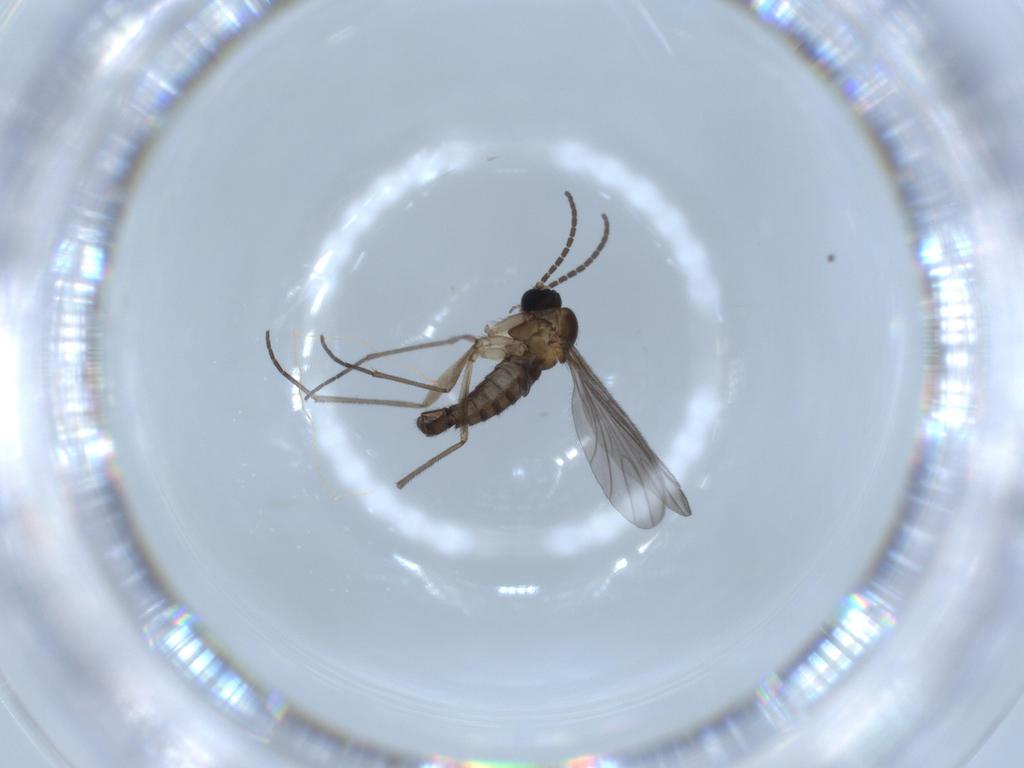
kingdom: Animalia
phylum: Arthropoda
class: Insecta
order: Diptera
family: Sciaridae
